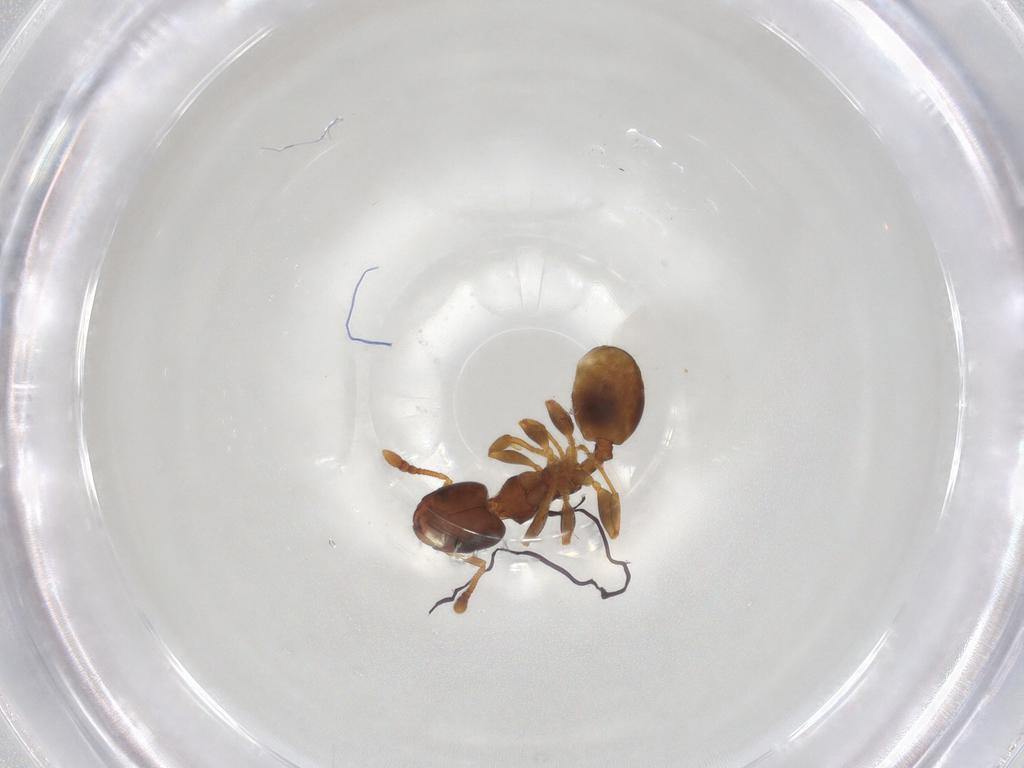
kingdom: Animalia
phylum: Arthropoda
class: Insecta
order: Hymenoptera
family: Formicidae
